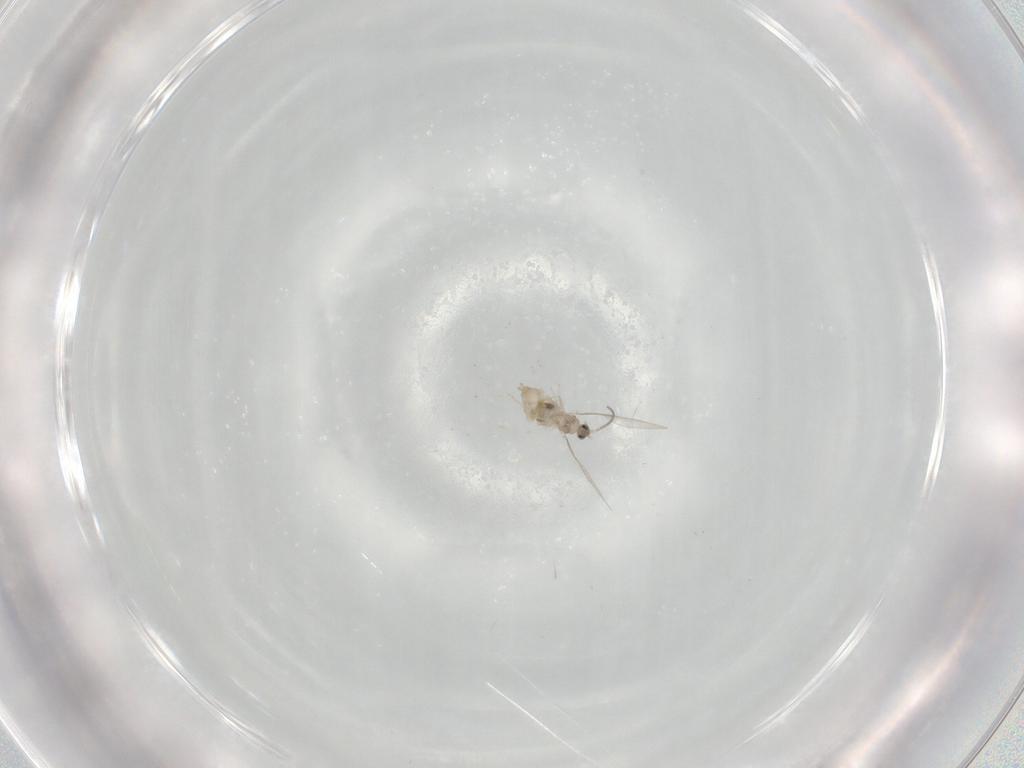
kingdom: Animalia
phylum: Arthropoda
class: Insecta
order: Diptera
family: Cecidomyiidae
